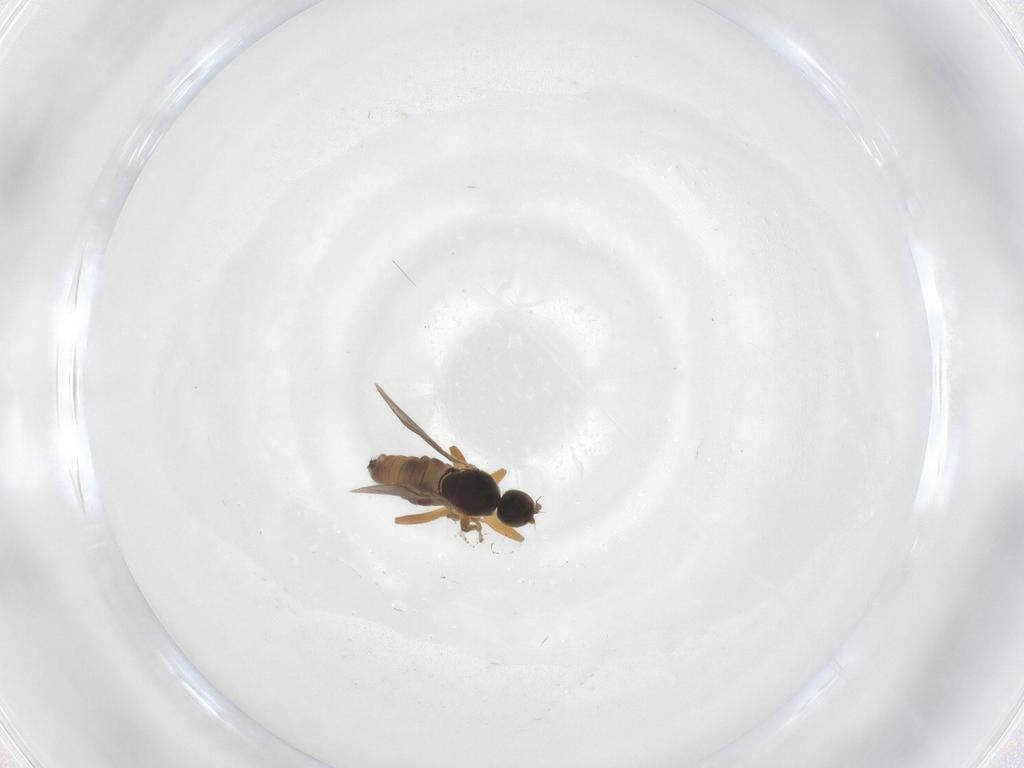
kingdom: Animalia
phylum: Arthropoda
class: Insecta
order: Diptera
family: Hybotidae
